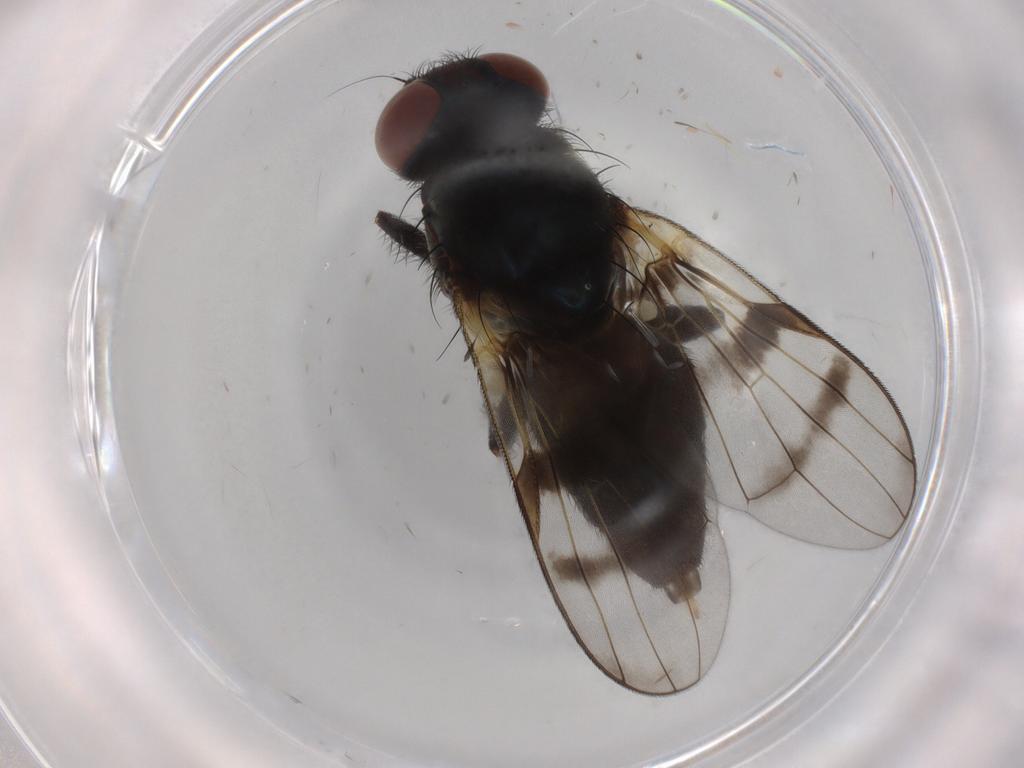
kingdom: Animalia
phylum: Arthropoda
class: Insecta
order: Diptera
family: Ceratopogonidae
